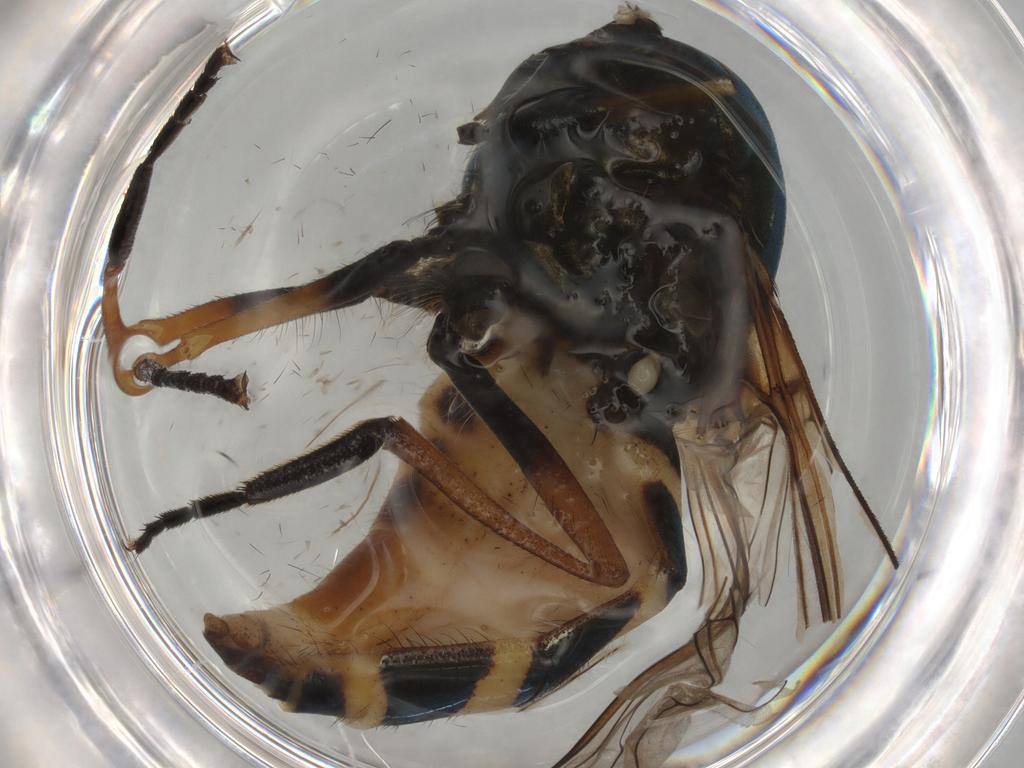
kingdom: Animalia
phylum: Arthropoda
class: Insecta
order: Diptera
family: Syrphidae
